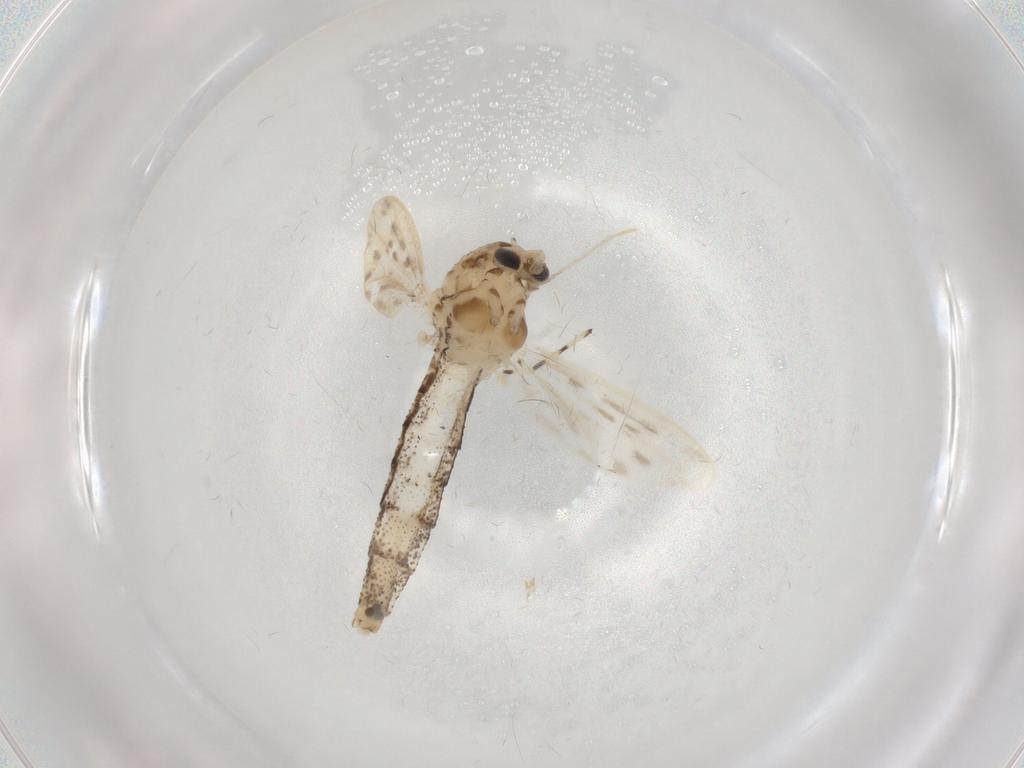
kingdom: Animalia
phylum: Arthropoda
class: Insecta
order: Diptera
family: Chaoboridae
